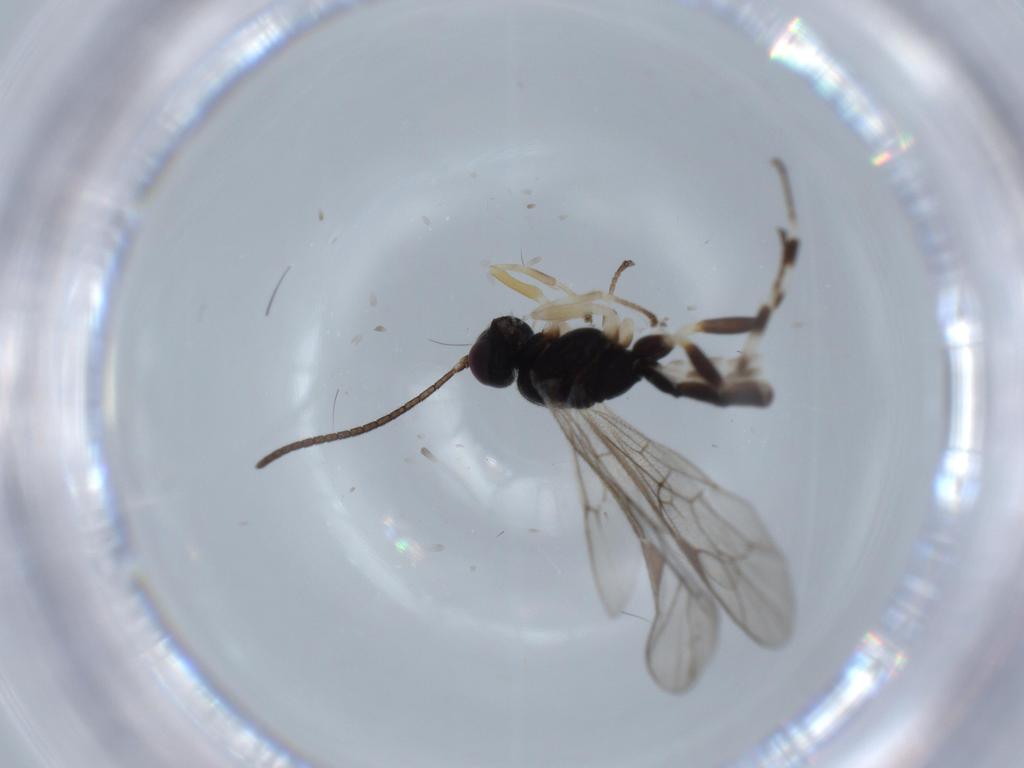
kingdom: Animalia
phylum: Arthropoda
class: Insecta
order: Hymenoptera
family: Ichneumonidae
